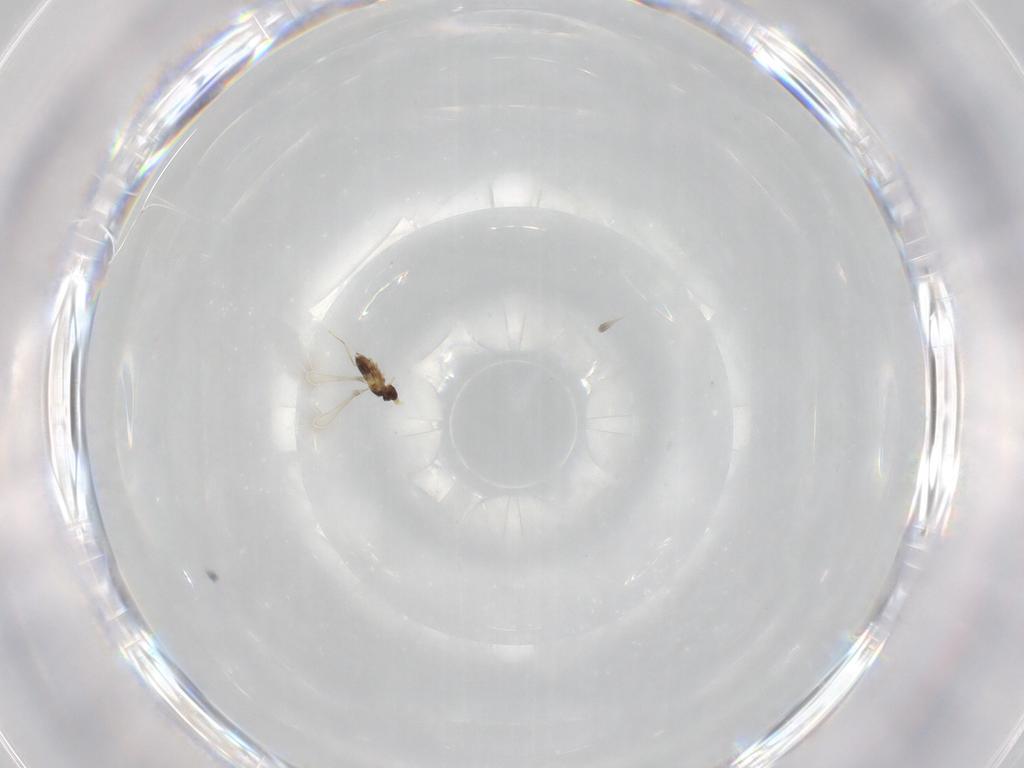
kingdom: Animalia
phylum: Arthropoda
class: Insecta
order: Hymenoptera
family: Mymaridae
